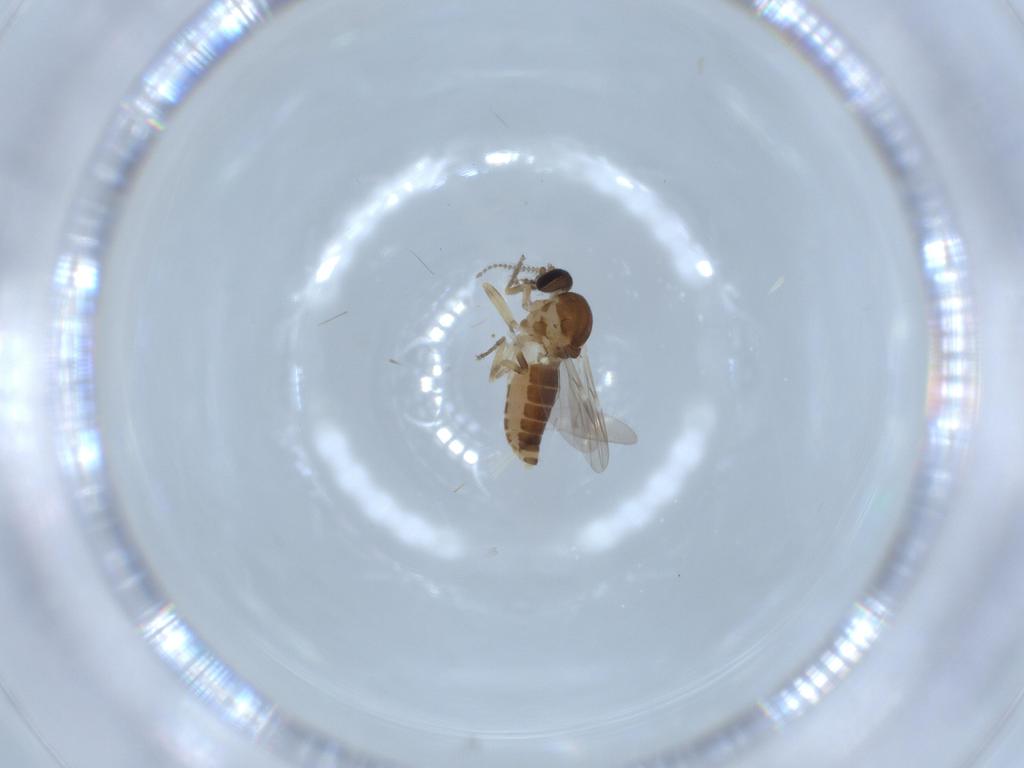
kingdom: Animalia
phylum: Arthropoda
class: Insecta
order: Diptera
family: Ceratopogonidae
